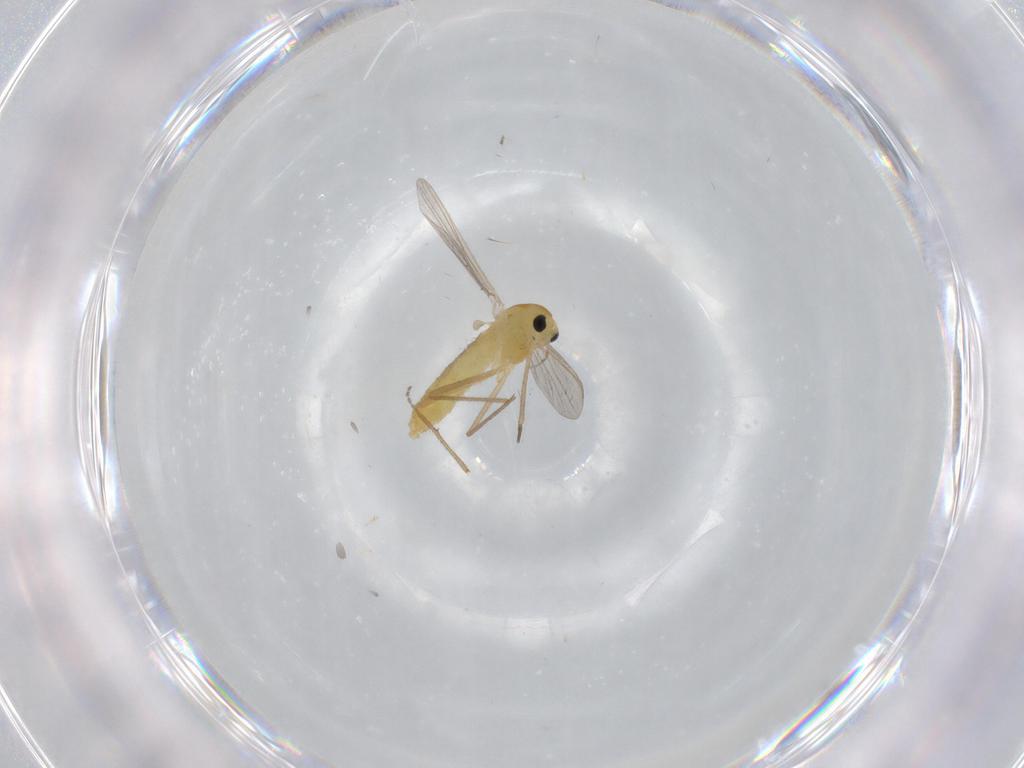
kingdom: Animalia
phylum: Arthropoda
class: Insecta
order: Diptera
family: Chironomidae
